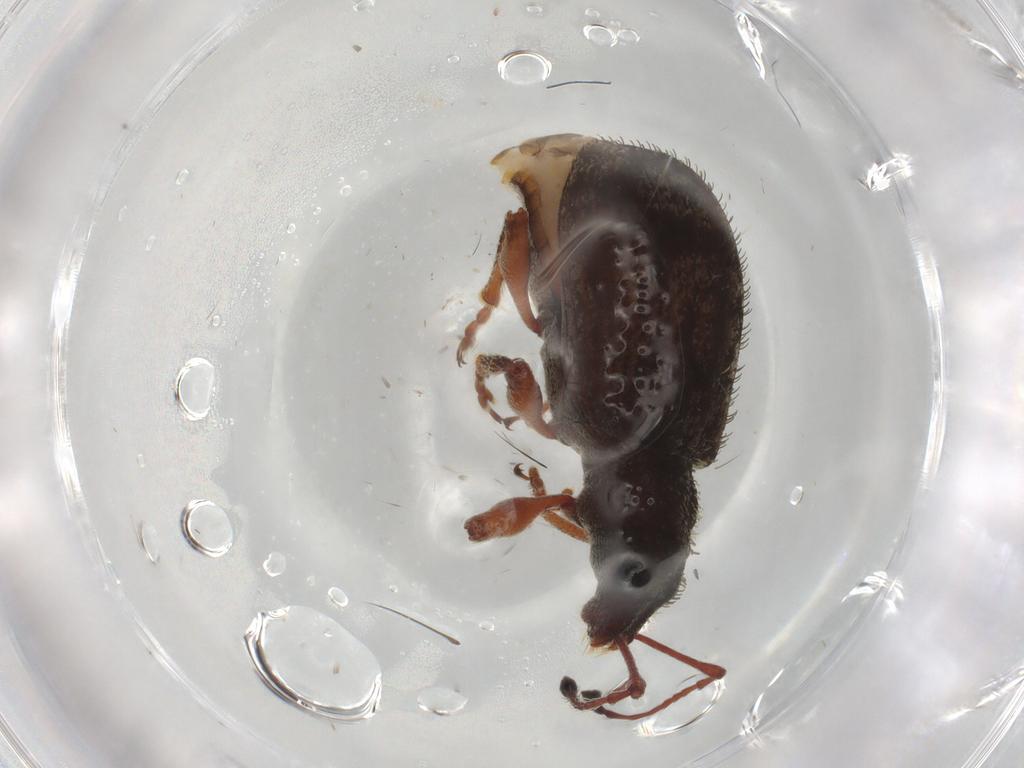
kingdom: Animalia
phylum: Arthropoda
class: Insecta
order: Coleoptera
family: Curculionidae
